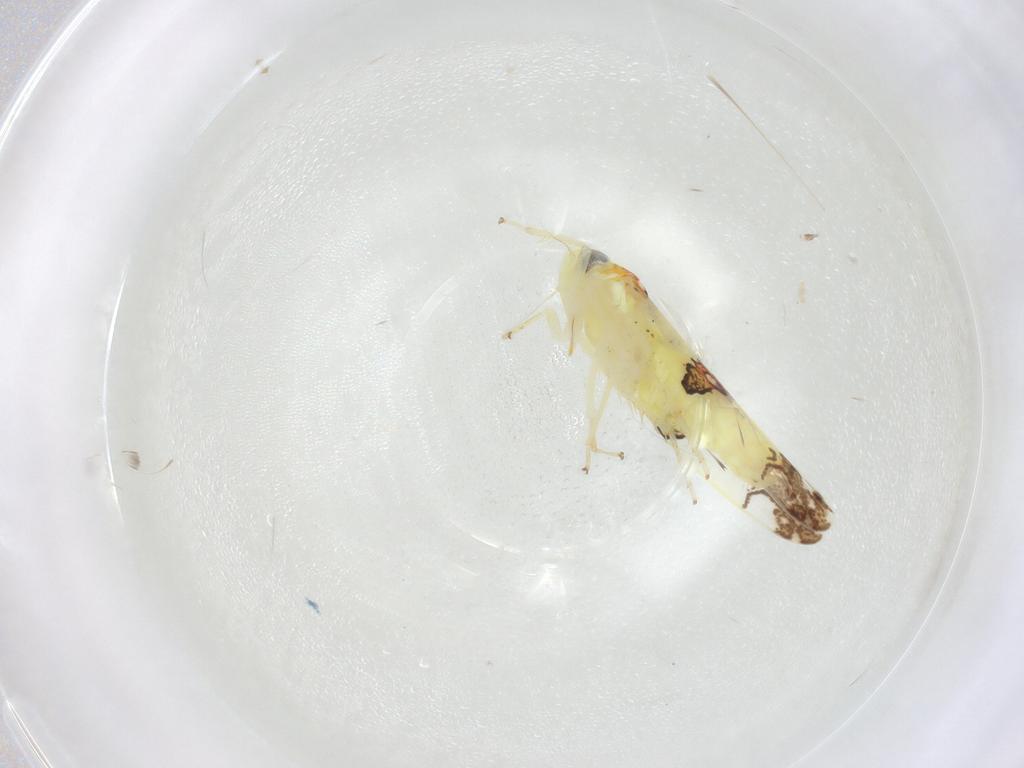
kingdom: Animalia
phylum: Arthropoda
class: Insecta
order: Hemiptera
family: Cicadellidae
